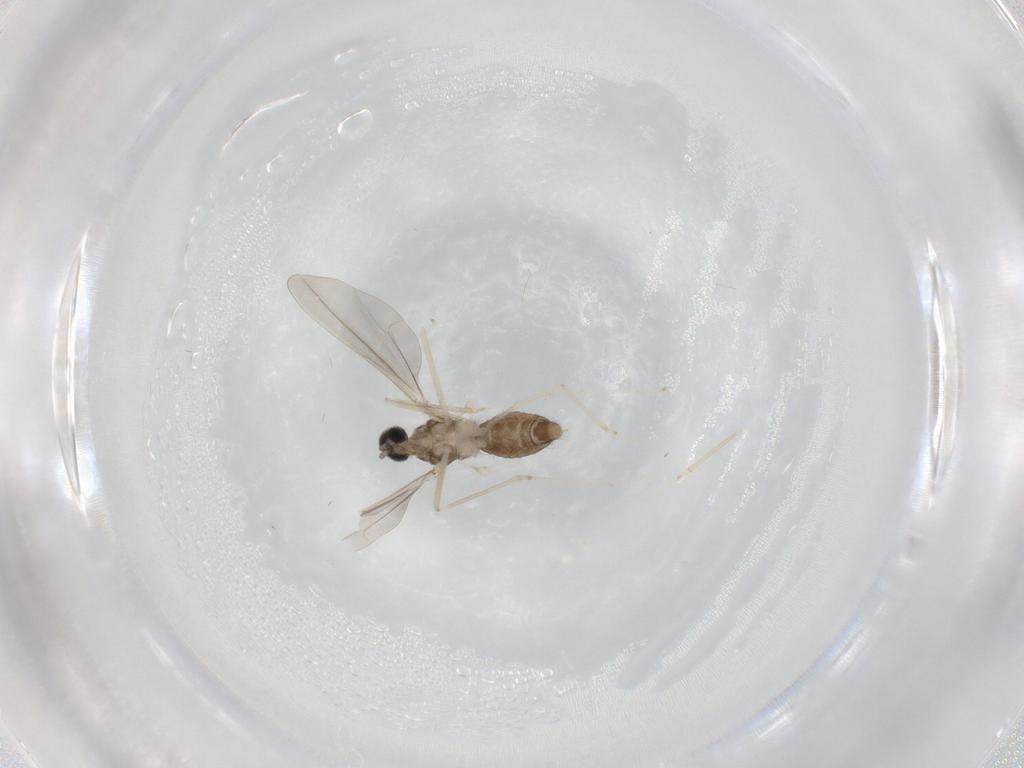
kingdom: Animalia
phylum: Arthropoda
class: Insecta
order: Diptera
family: Cecidomyiidae
